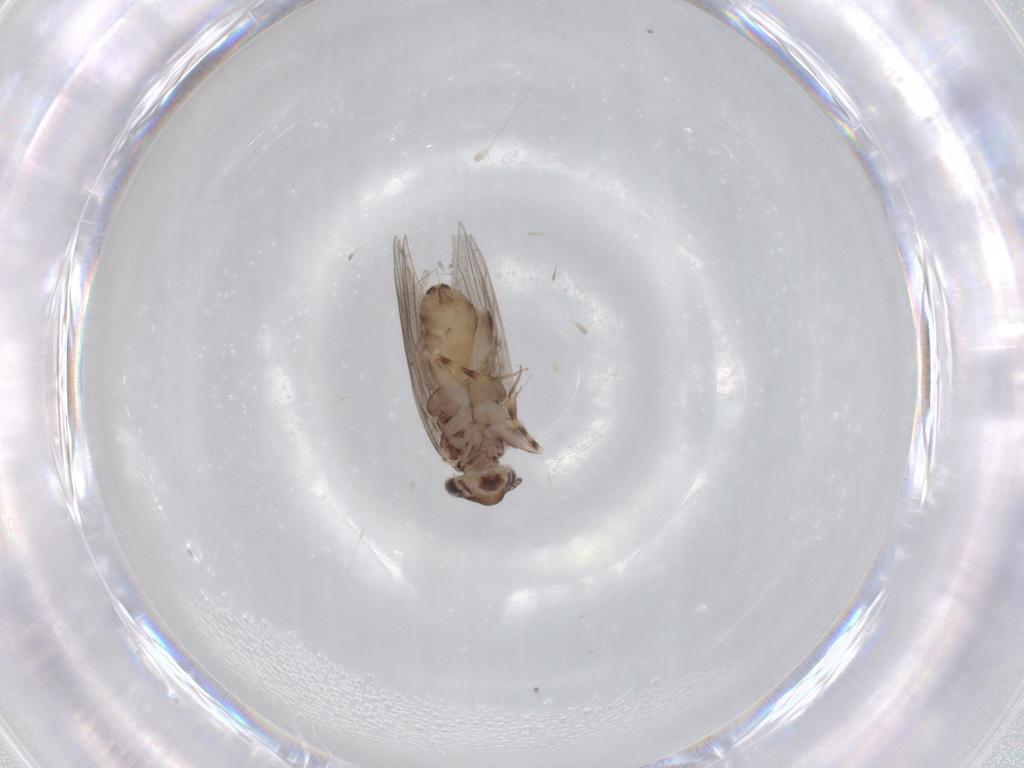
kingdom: Animalia
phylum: Arthropoda
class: Insecta
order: Psocodea
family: Lepidopsocidae
